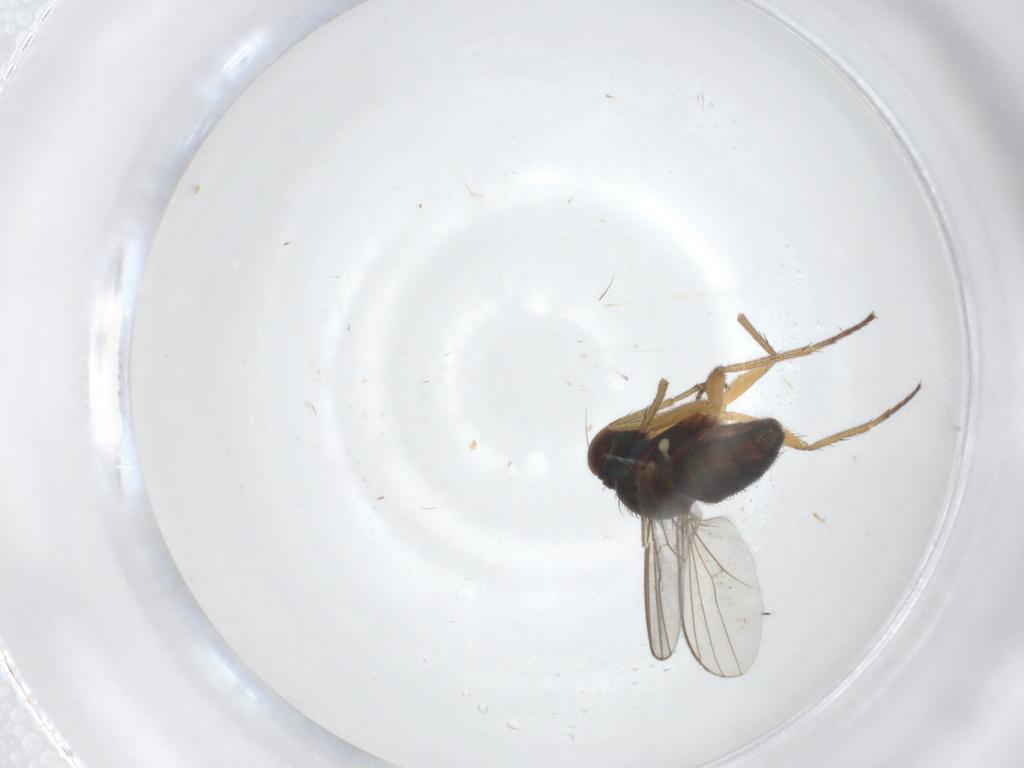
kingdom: Animalia
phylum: Arthropoda
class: Insecta
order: Diptera
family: Dolichopodidae
